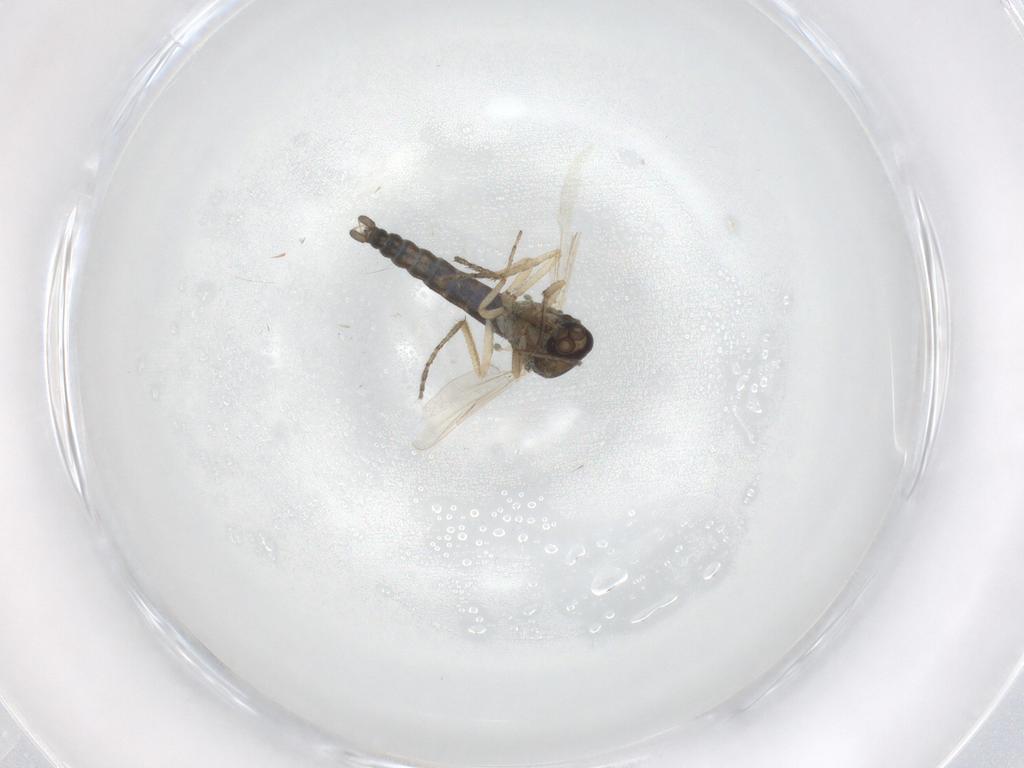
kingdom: Animalia
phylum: Arthropoda
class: Insecta
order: Diptera
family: Ceratopogonidae
